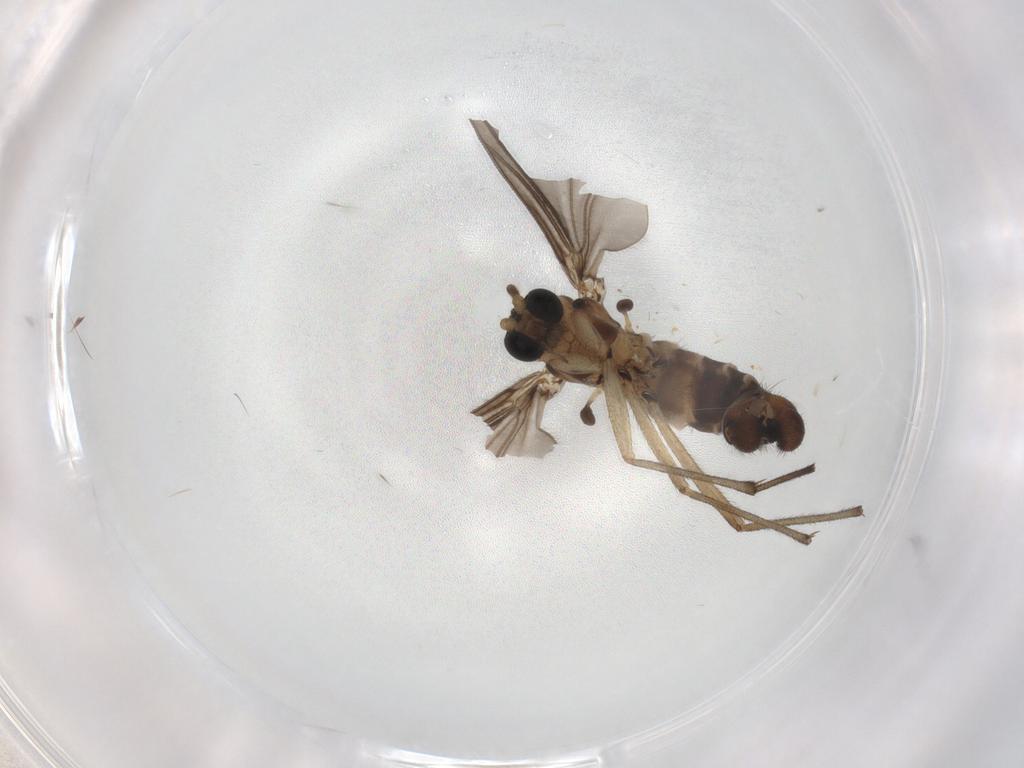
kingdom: Animalia
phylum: Arthropoda
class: Insecta
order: Diptera
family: Sciaridae
